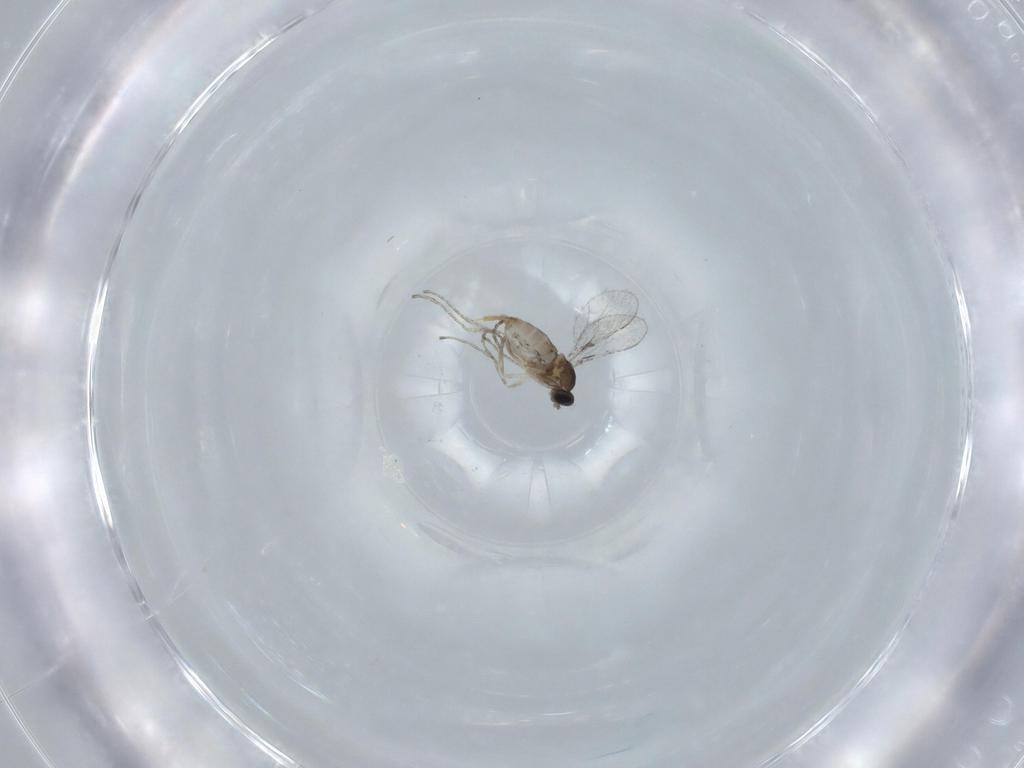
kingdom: Animalia
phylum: Arthropoda
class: Insecta
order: Diptera
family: Cecidomyiidae
